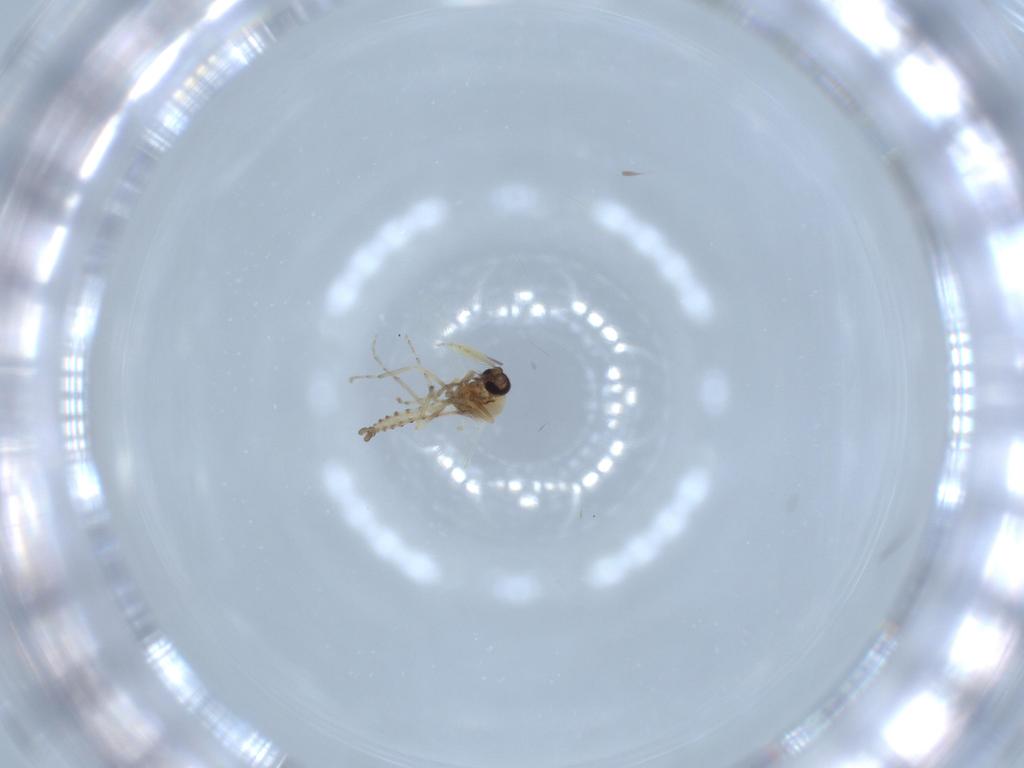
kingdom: Animalia
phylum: Arthropoda
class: Insecta
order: Diptera
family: Ceratopogonidae
